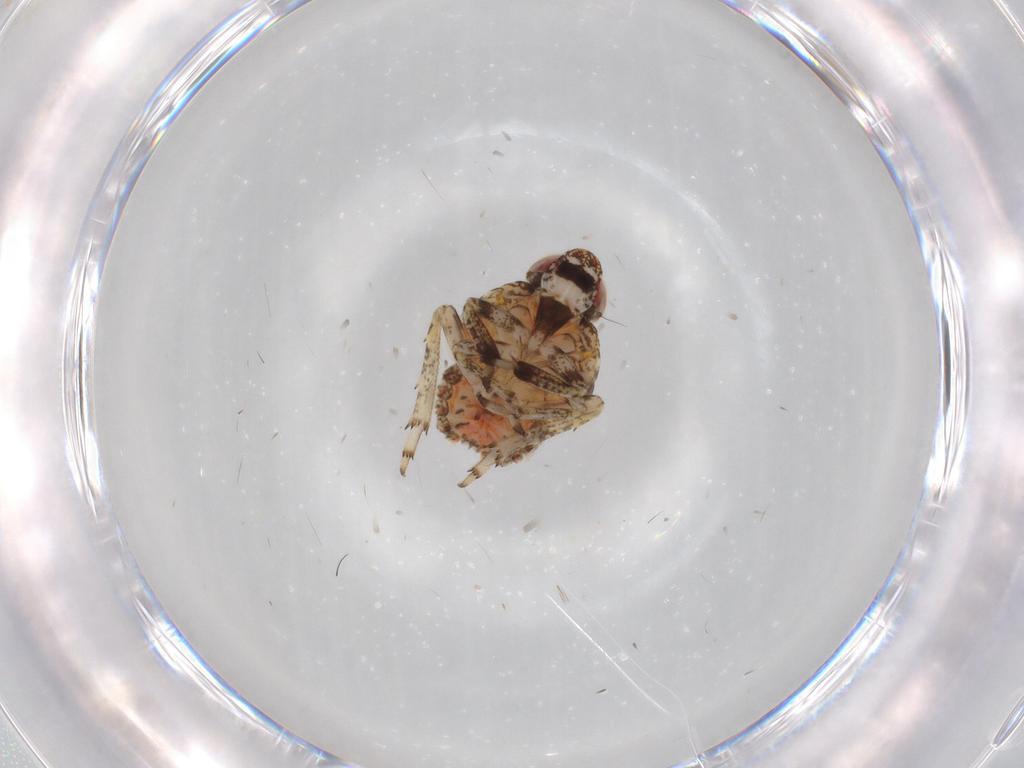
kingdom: Animalia
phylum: Arthropoda
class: Insecta
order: Hemiptera
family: Issidae
